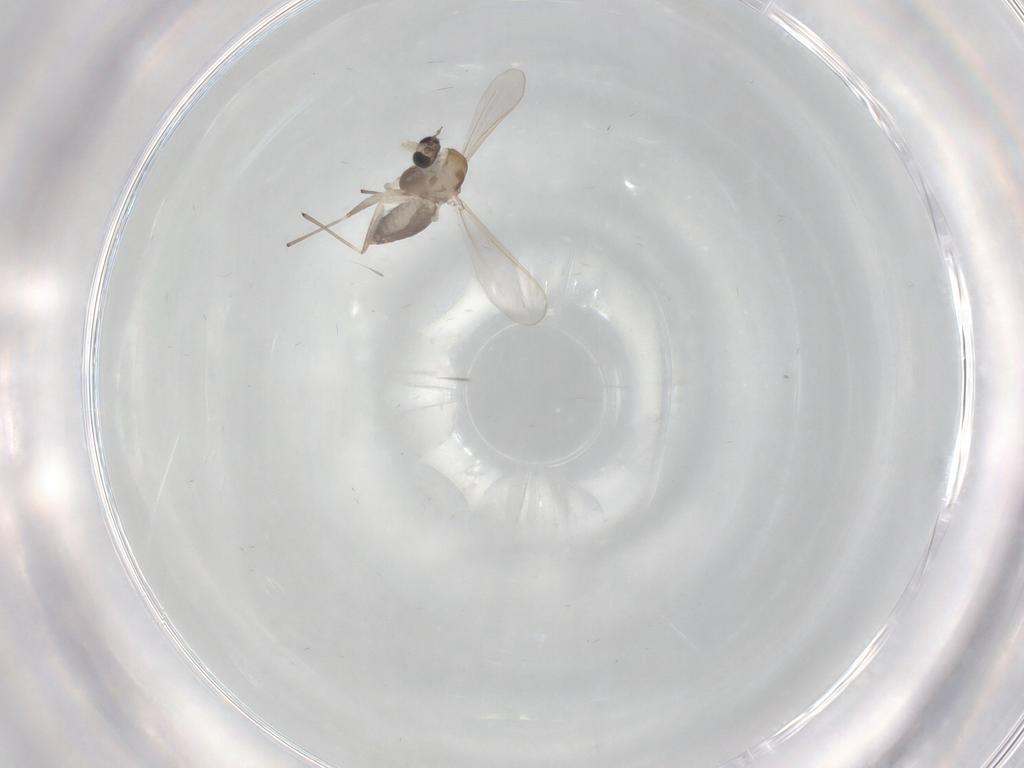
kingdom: Animalia
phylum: Arthropoda
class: Insecta
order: Diptera
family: Chironomidae
